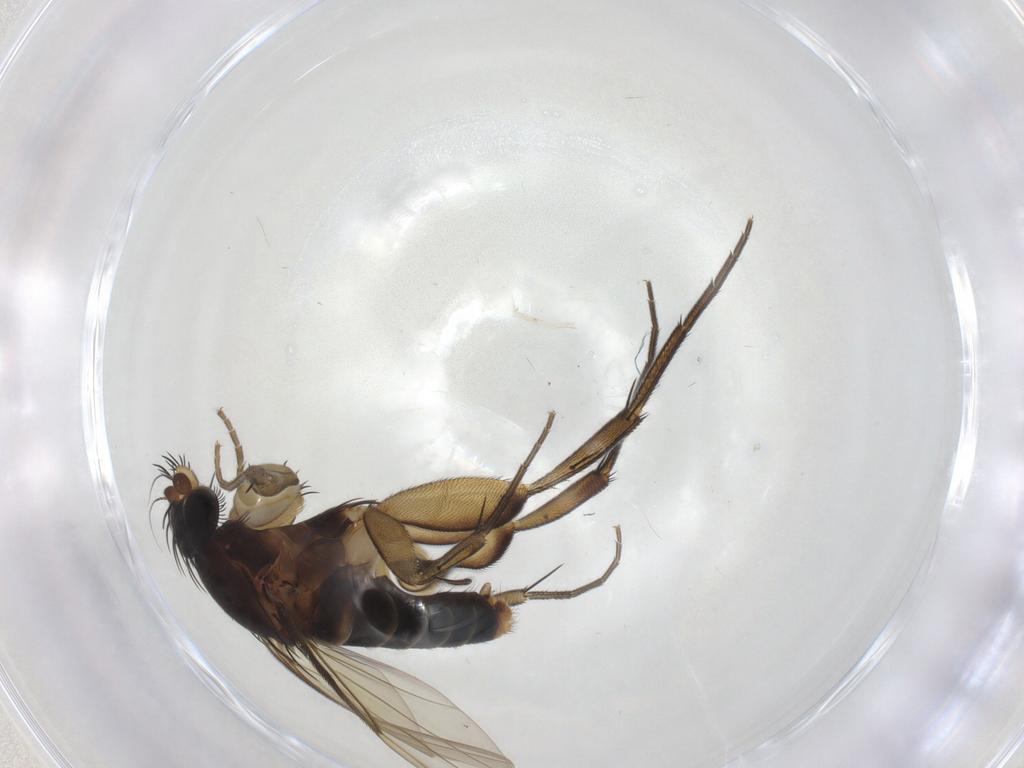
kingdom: Animalia
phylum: Arthropoda
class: Insecta
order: Diptera
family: Phoridae
